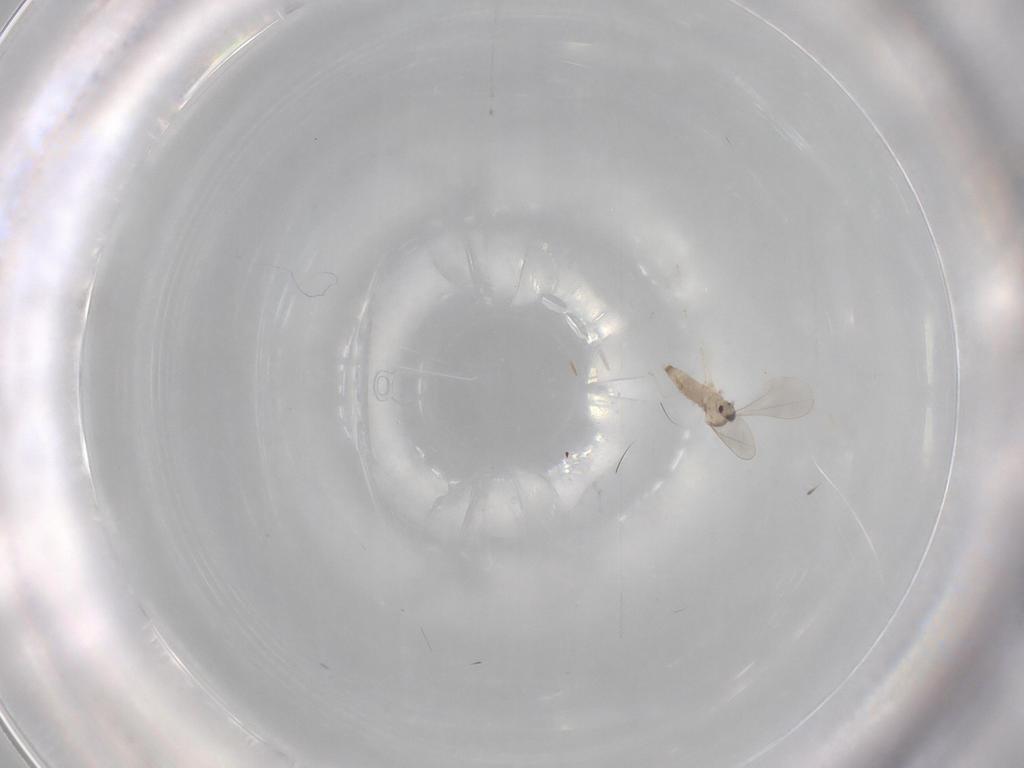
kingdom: Animalia
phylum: Arthropoda
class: Insecta
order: Diptera
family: Cecidomyiidae
